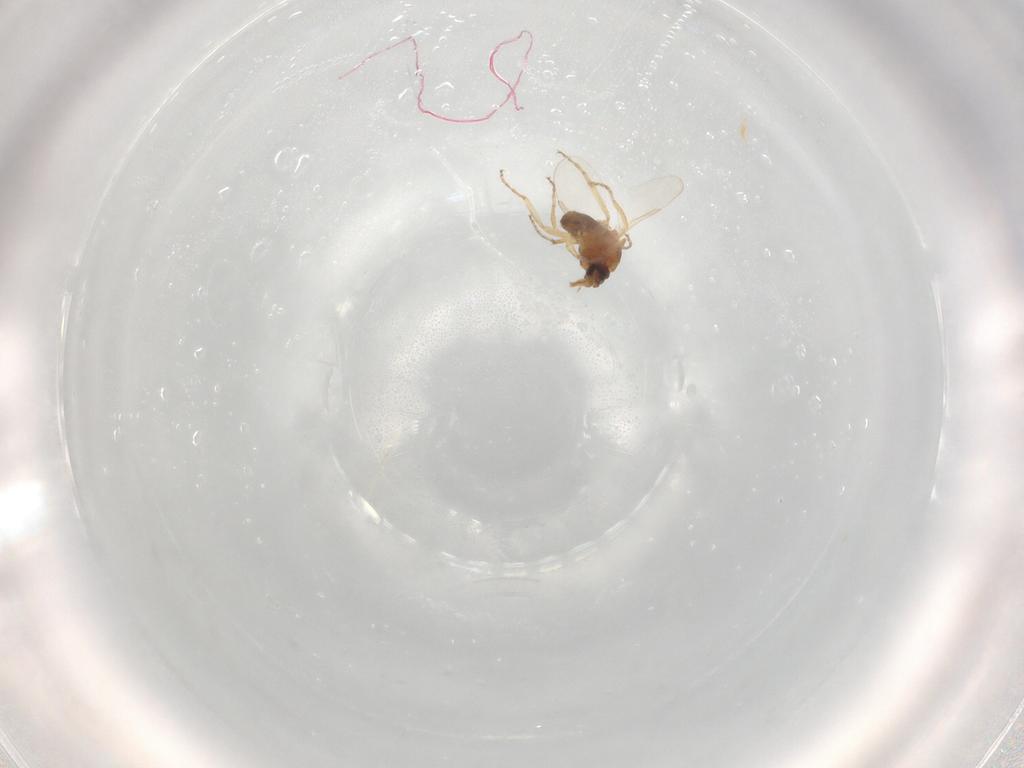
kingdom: Animalia
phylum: Arthropoda
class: Insecta
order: Diptera
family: Ceratopogonidae
